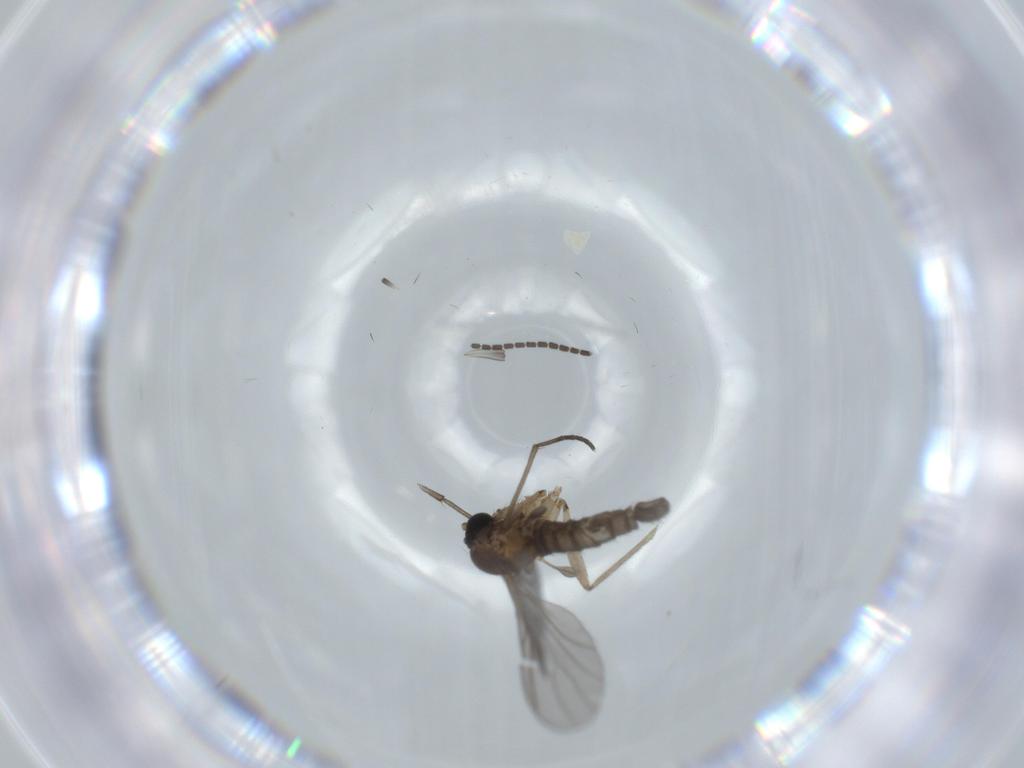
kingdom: Animalia
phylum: Arthropoda
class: Insecta
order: Diptera
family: Sciaridae
